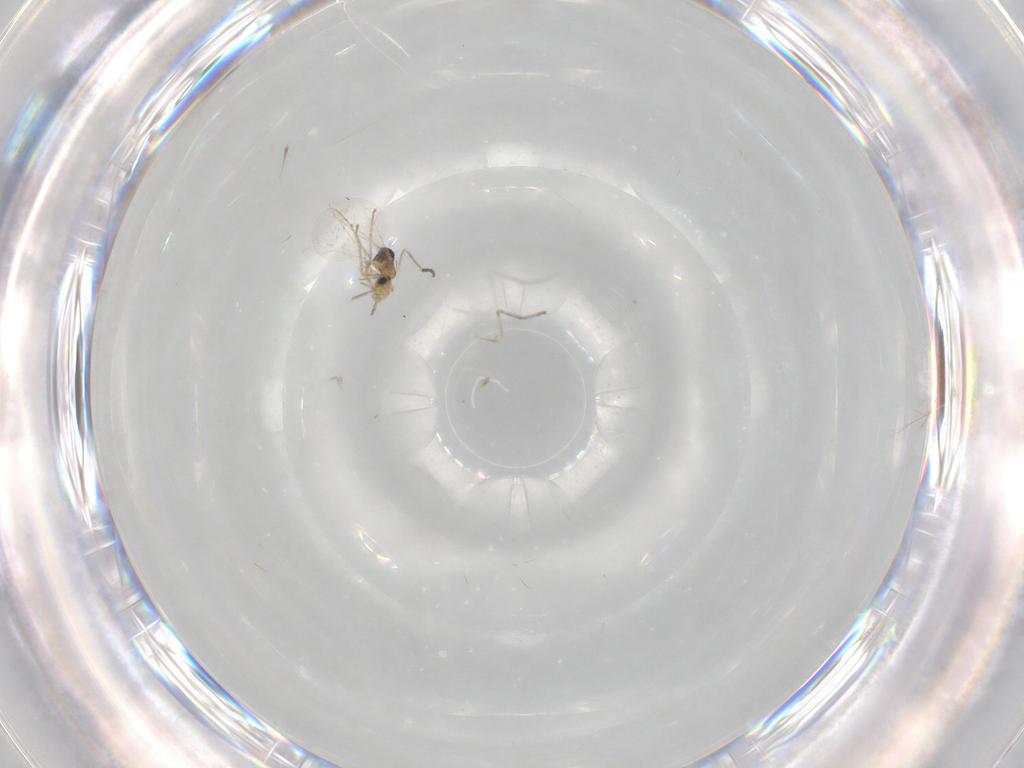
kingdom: Animalia
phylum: Arthropoda
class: Insecta
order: Diptera
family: Cecidomyiidae
